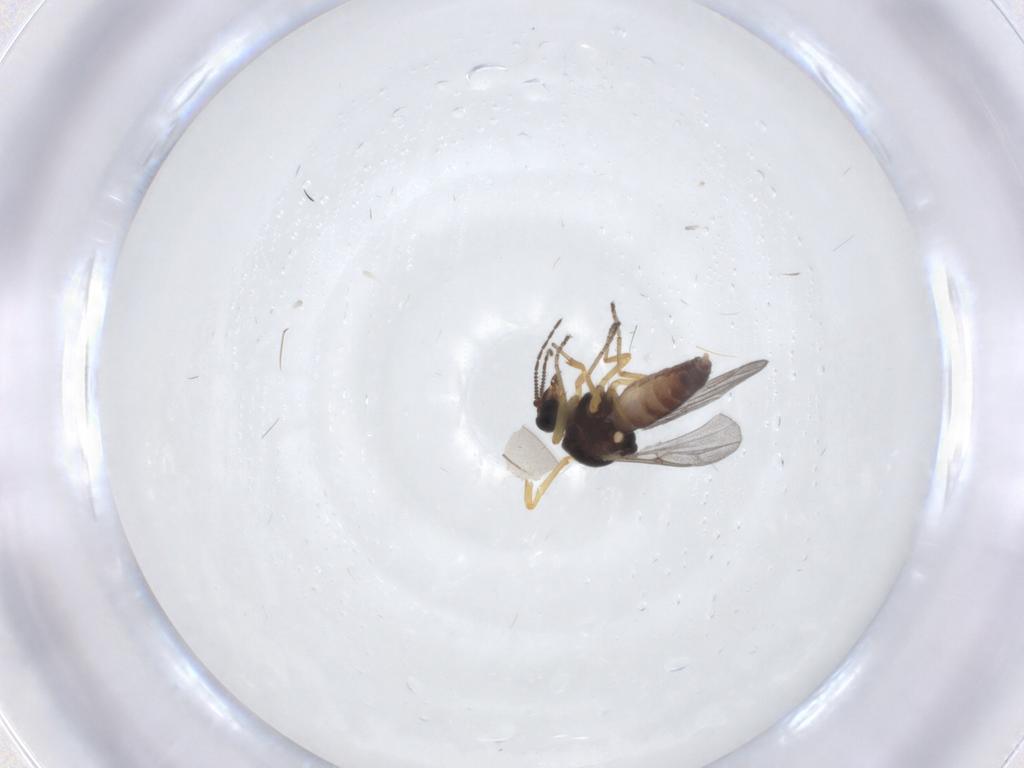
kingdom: Animalia
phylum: Arthropoda
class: Insecta
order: Diptera
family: Ceratopogonidae
